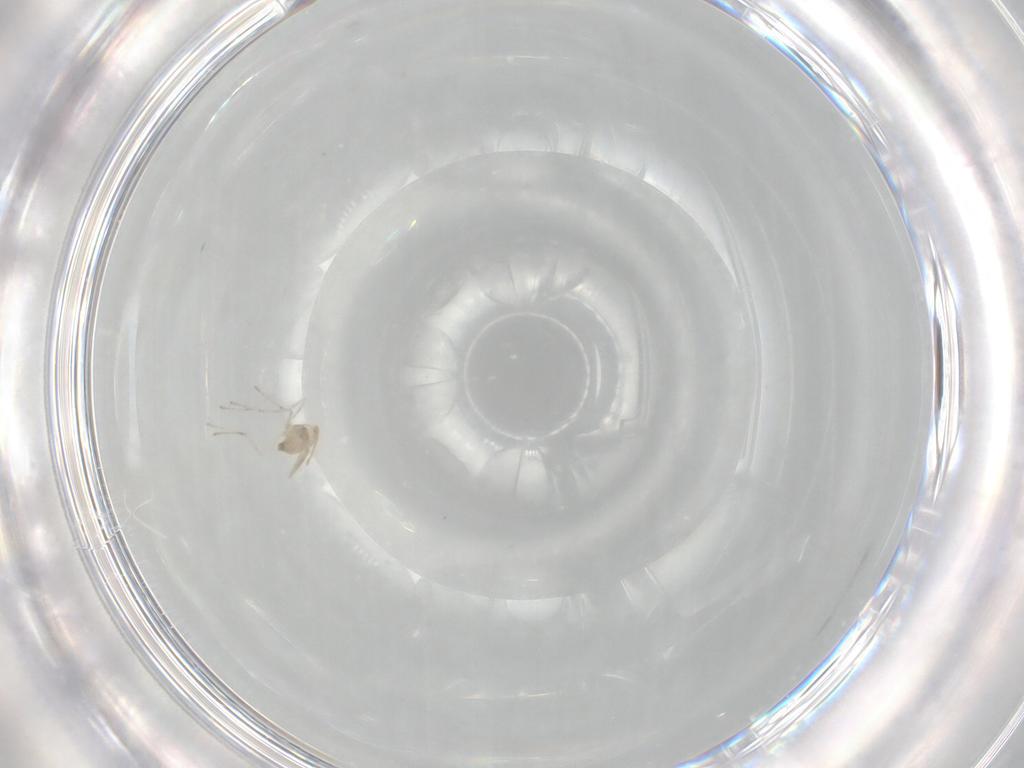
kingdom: Animalia
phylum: Arthropoda
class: Insecta
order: Diptera
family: Cecidomyiidae
